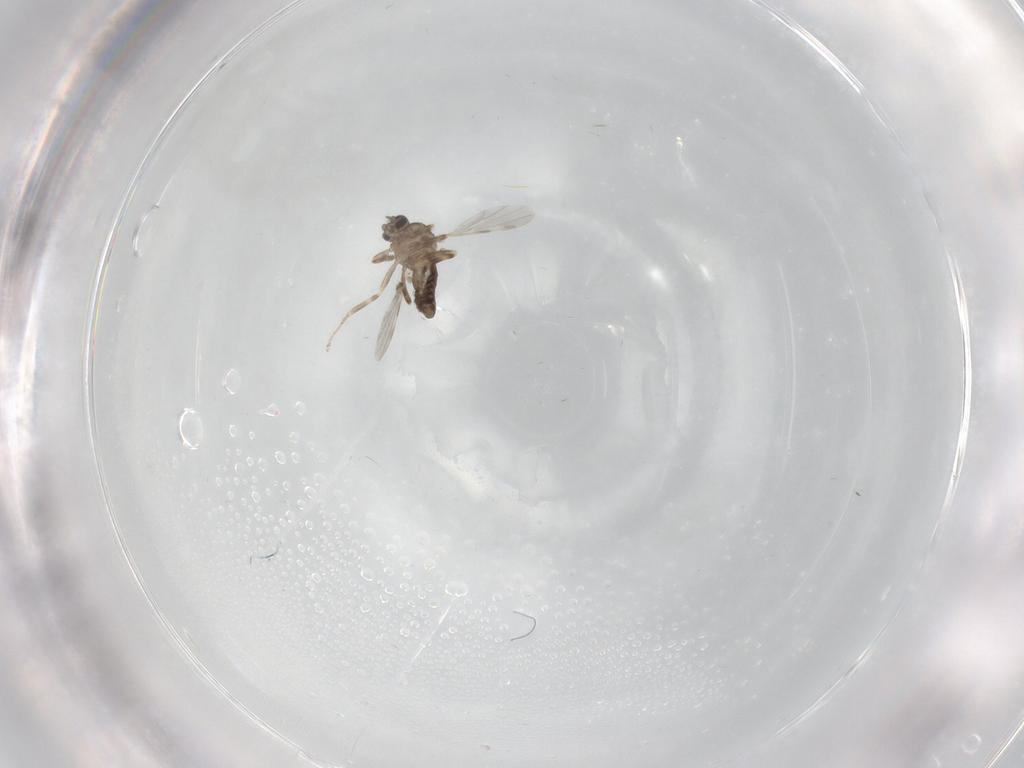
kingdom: Animalia
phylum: Arthropoda
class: Insecta
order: Diptera
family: Ceratopogonidae
